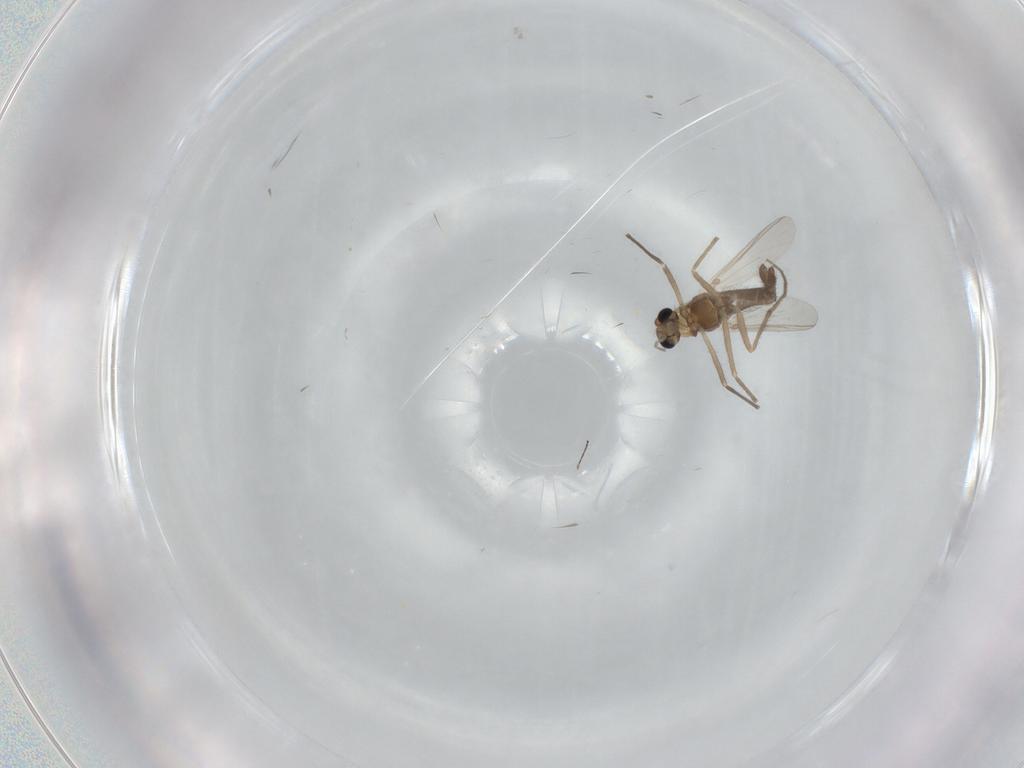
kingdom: Animalia
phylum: Arthropoda
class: Insecta
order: Diptera
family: Chironomidae
